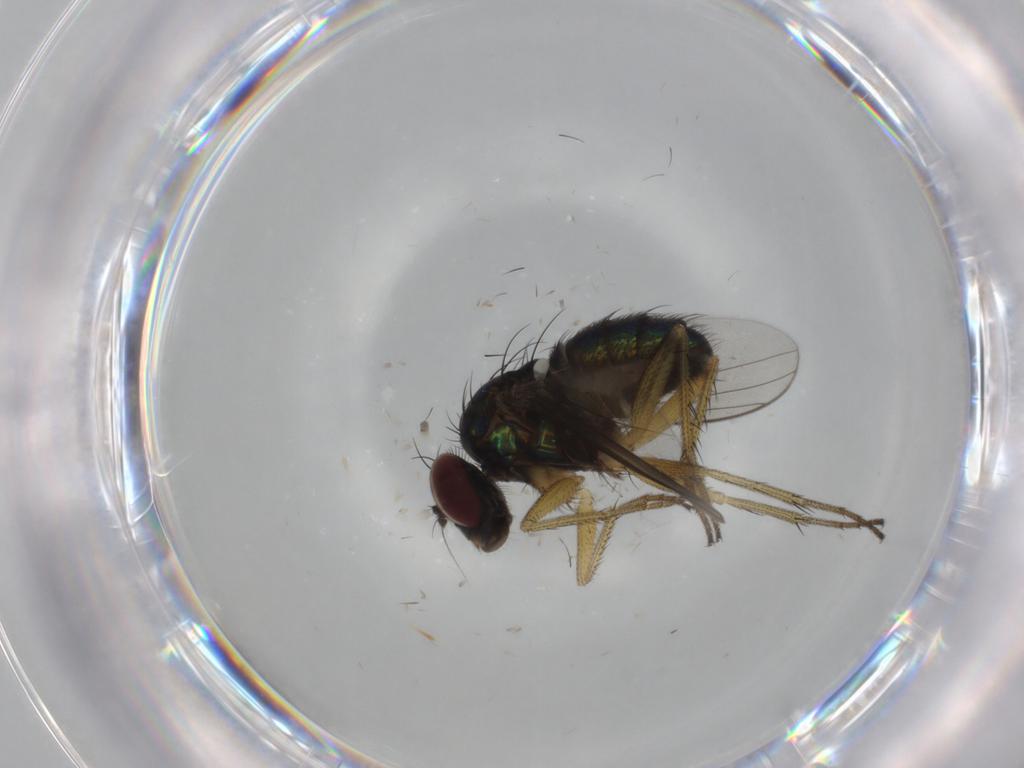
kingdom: Animalia
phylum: Arthropoda
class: Insecta
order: Diptera
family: Dolichopodidae
